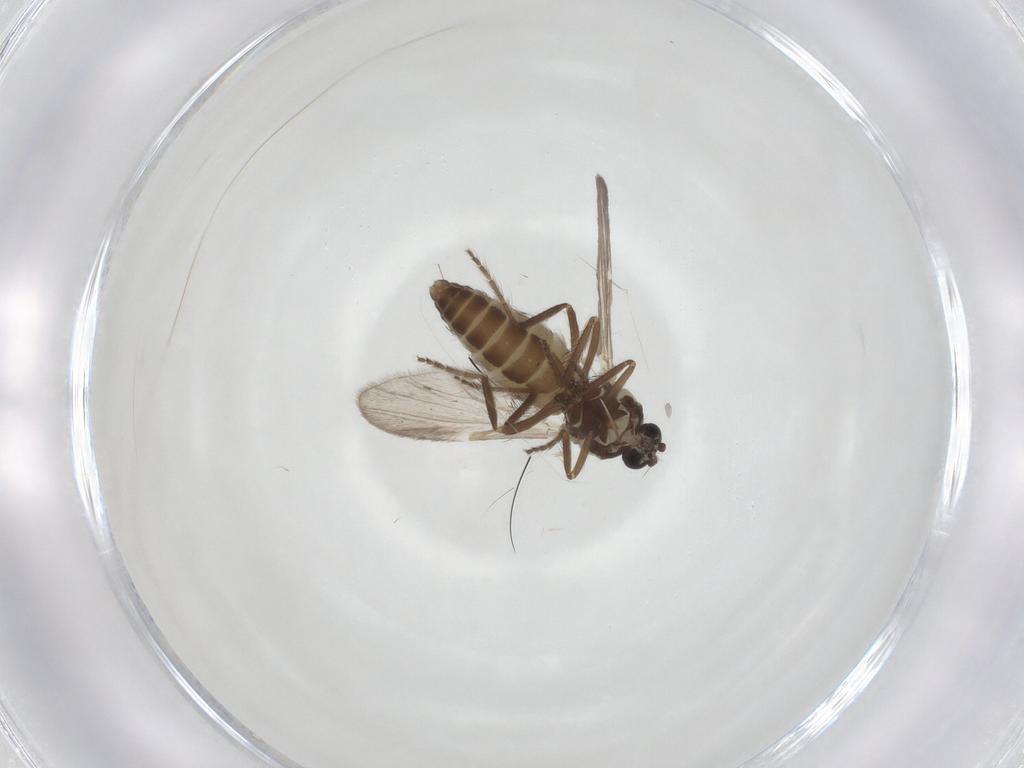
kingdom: Animalia
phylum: Arthropoda
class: Insecta
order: Diptera
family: Ceratopogonidae
